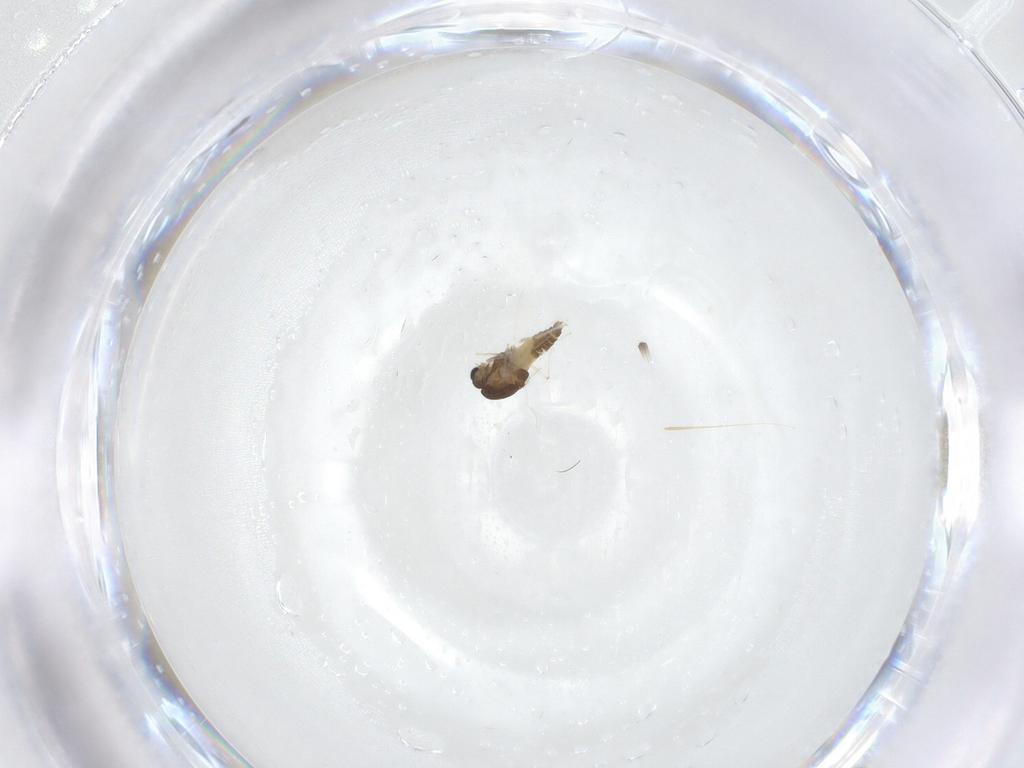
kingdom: Animalia
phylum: Arthropoda
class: Insecta
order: Diptera
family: Chironomidae
